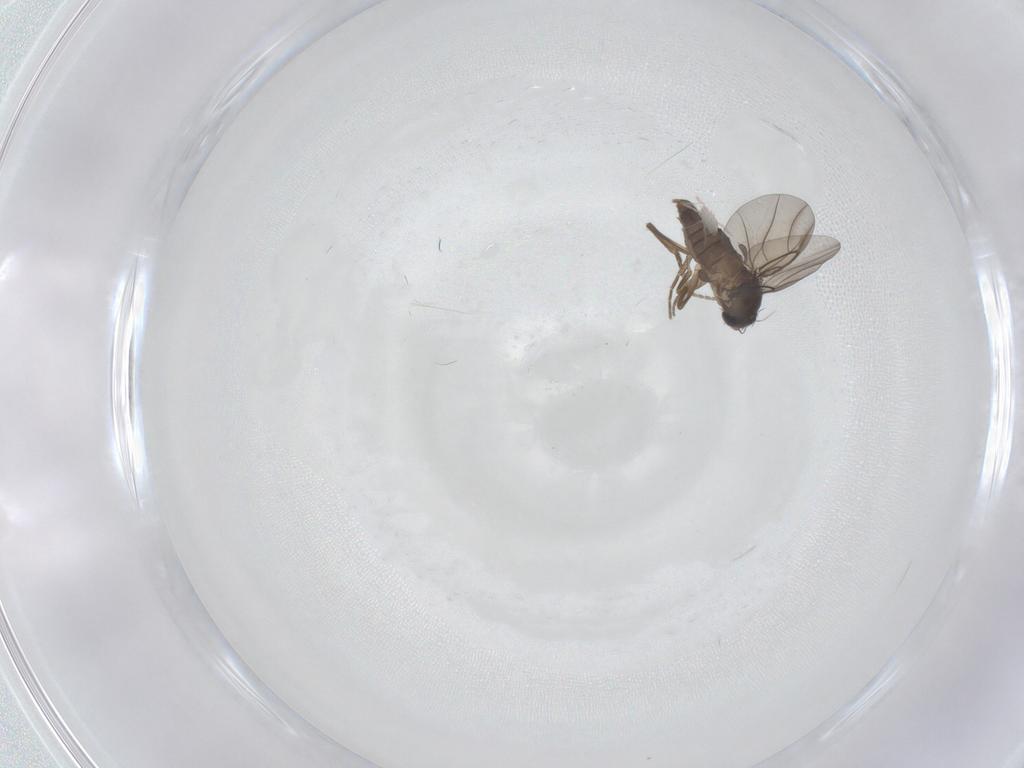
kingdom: Animalia
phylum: Arthropoda
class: Insecta
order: Diptera
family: Phoridae
